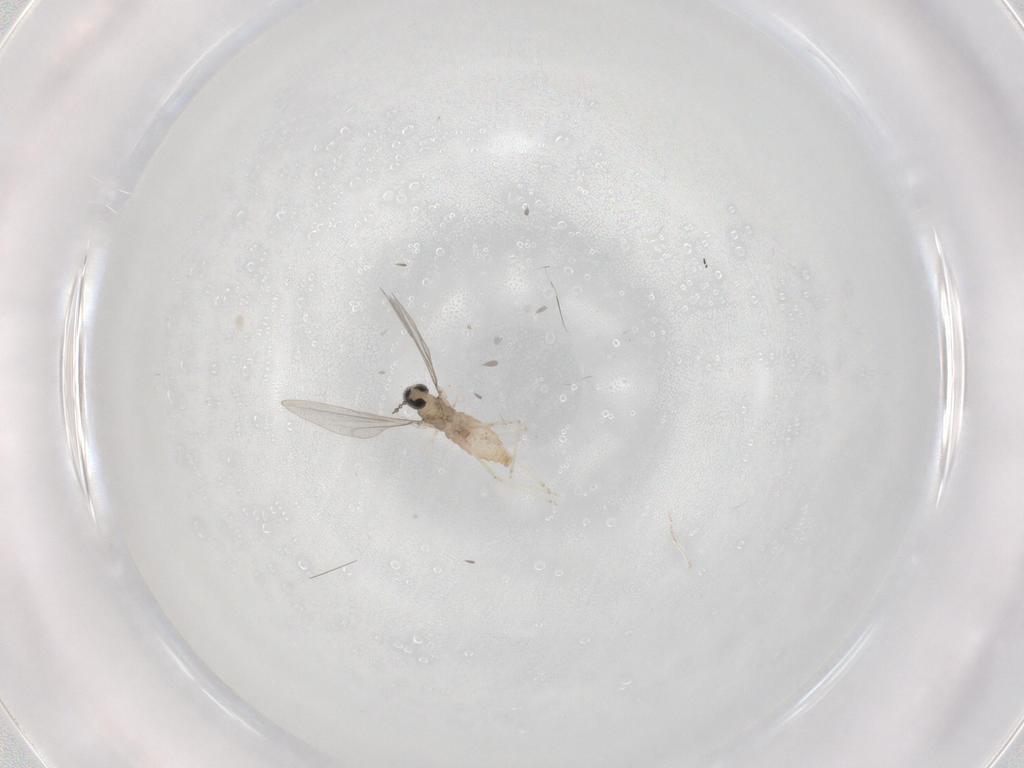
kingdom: Animalia
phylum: Arthropoda
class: Insecta
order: Diptera
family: Cecidomyiidae
